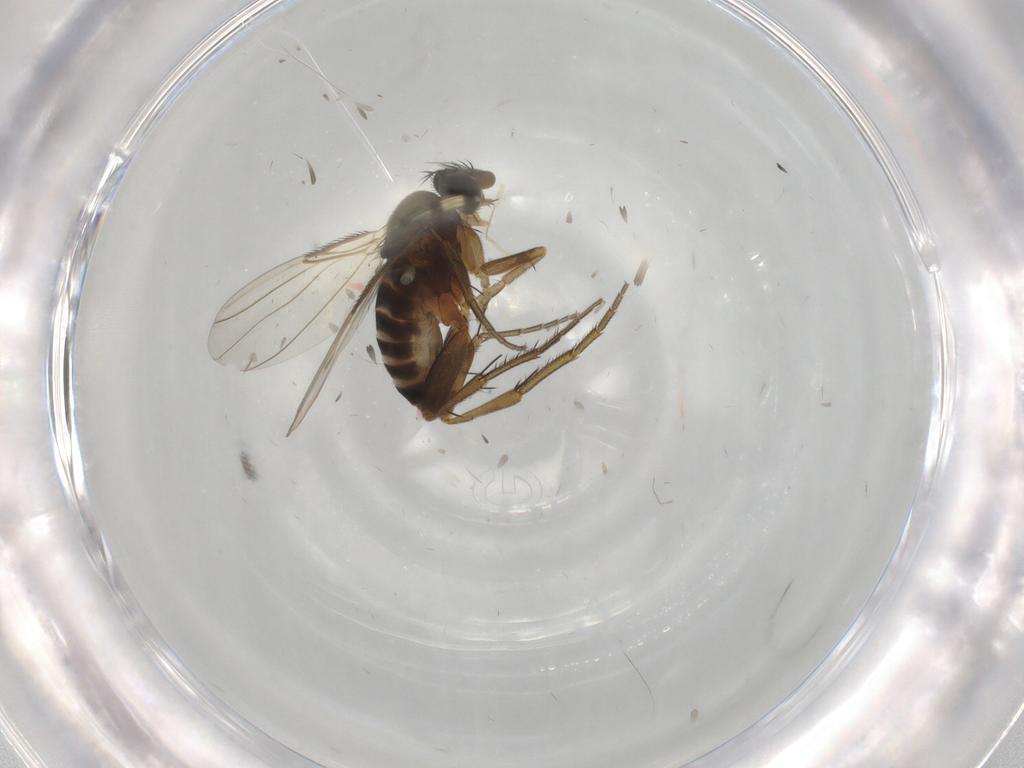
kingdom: Animalia
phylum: Arthropoda
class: Insecta
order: Diptera
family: Phoridae
